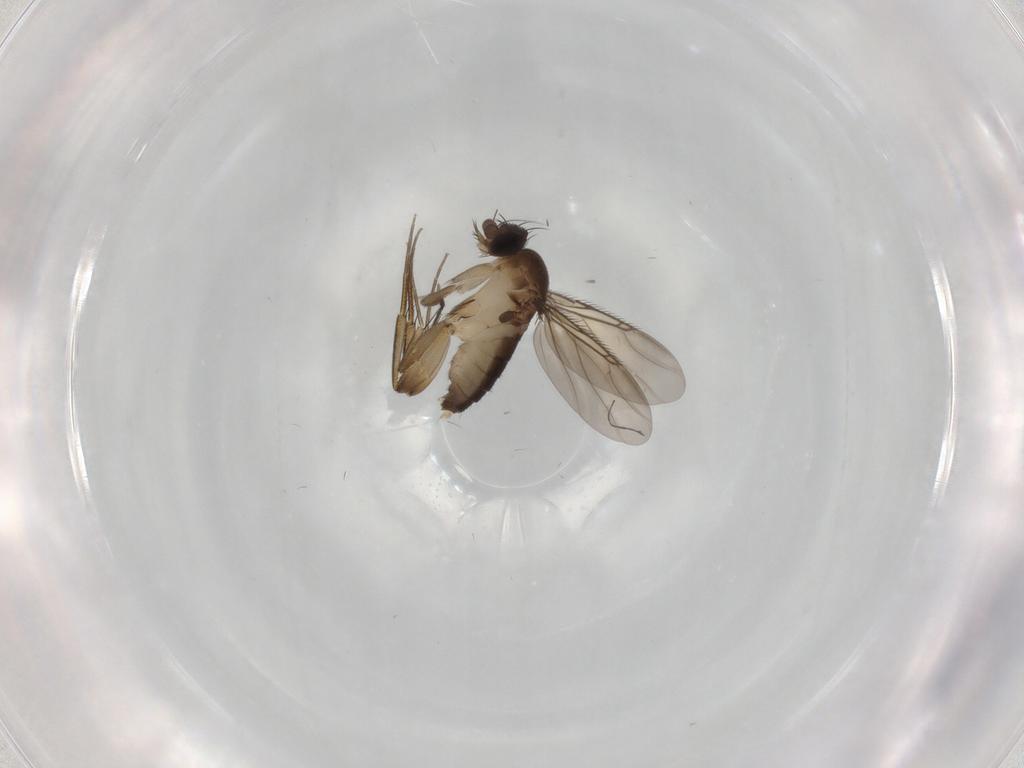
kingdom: Animalia
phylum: Arthropoda
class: Insecta
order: Diptera
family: Phoridae
